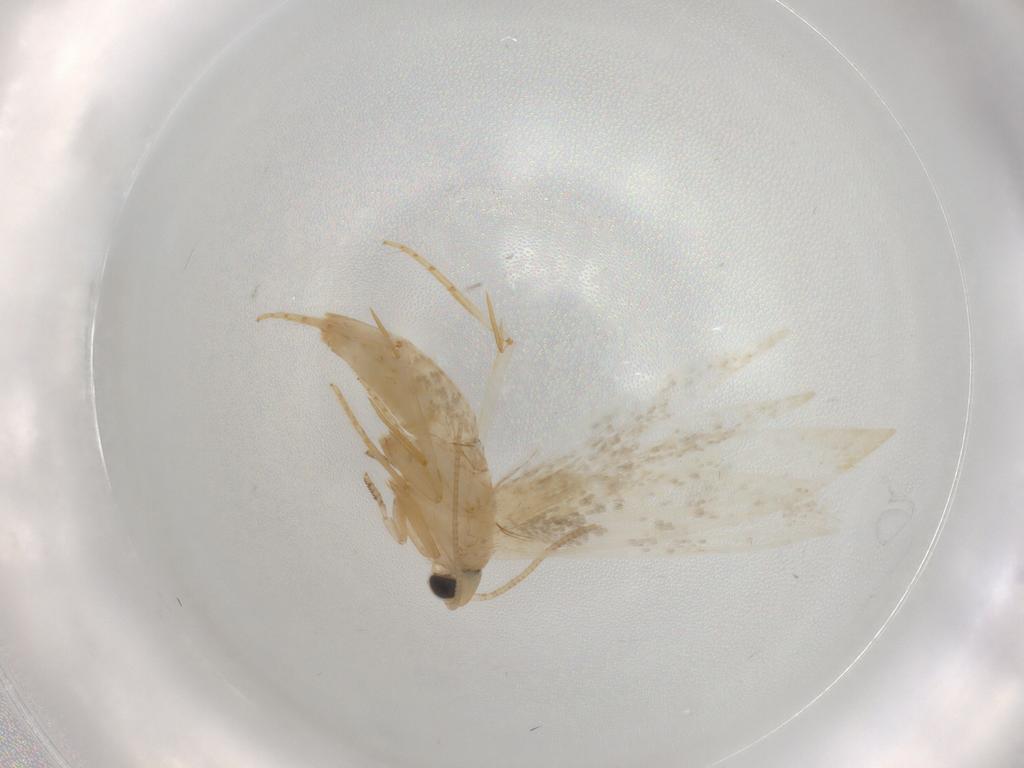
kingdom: Animalia
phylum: Arthropoda
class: Insecta
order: Lepidoptera
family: Tineidae
